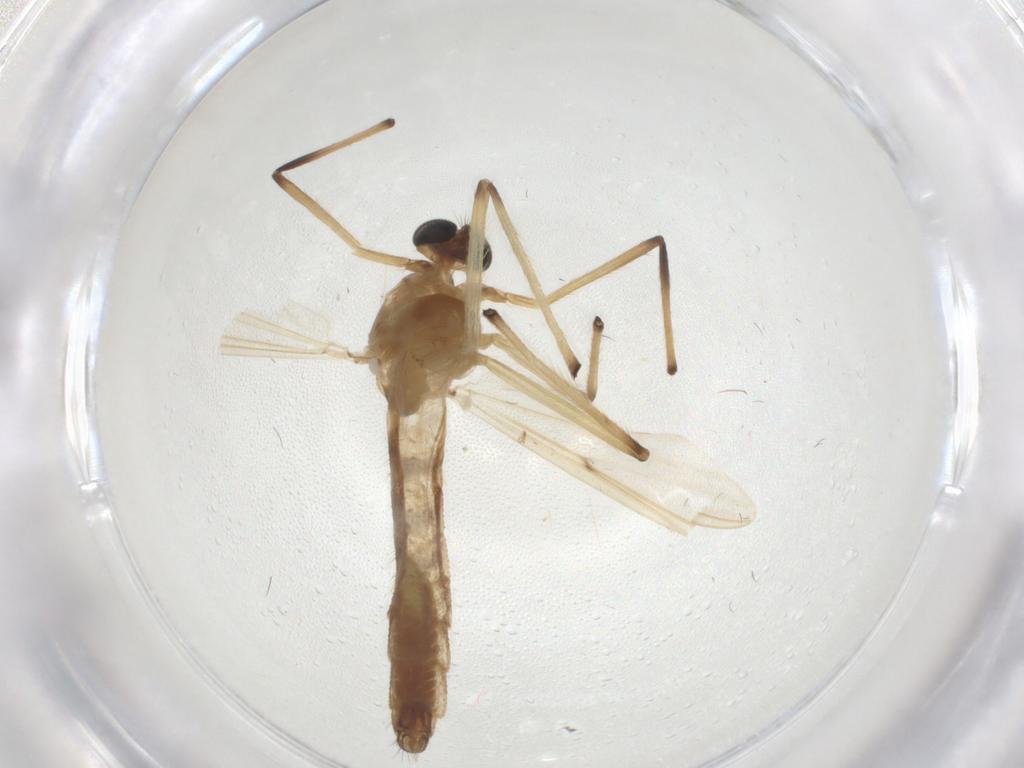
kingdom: Animalia
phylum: Arthropoda
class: Insecta
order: Diptera
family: Chironomidae
